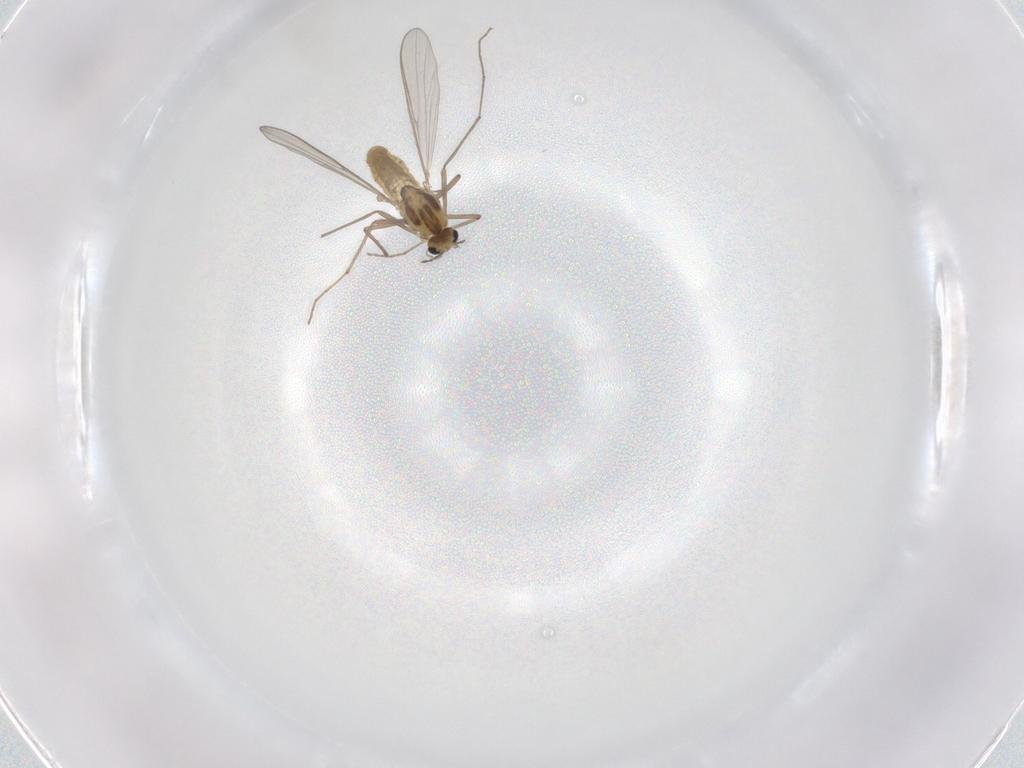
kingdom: Animalia
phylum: Arthropoda
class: Insecta
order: Diptera
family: Chironomidae
